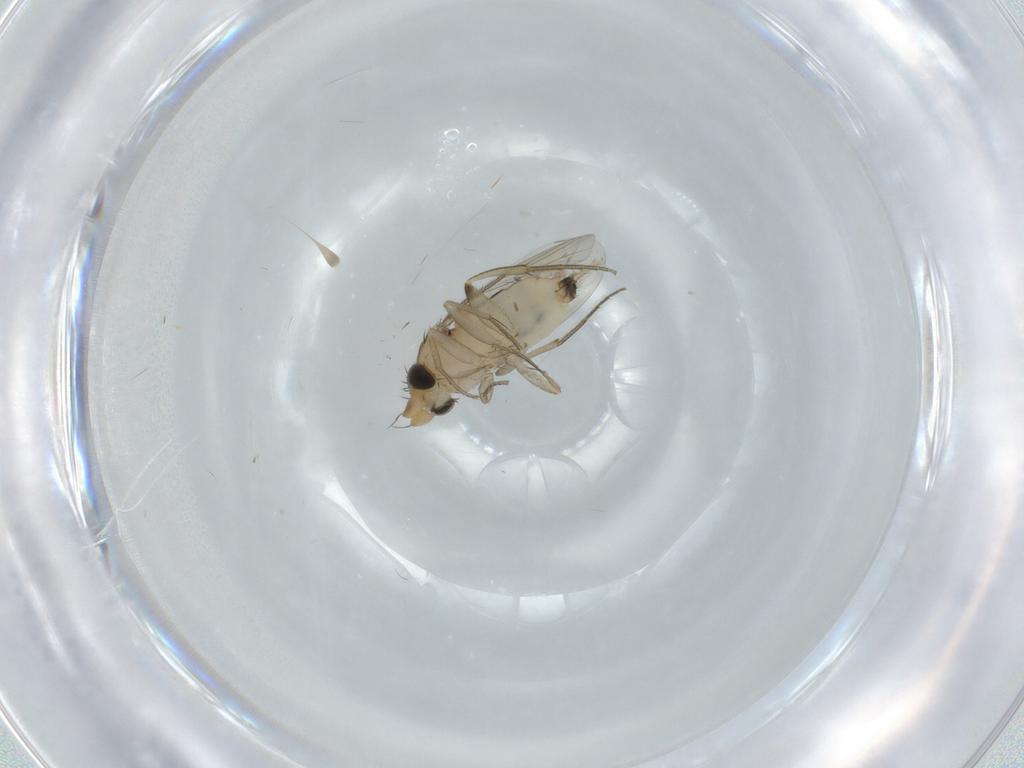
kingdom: Animalia
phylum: Arthropoda
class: Insecta
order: Diptera
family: Phoridae
